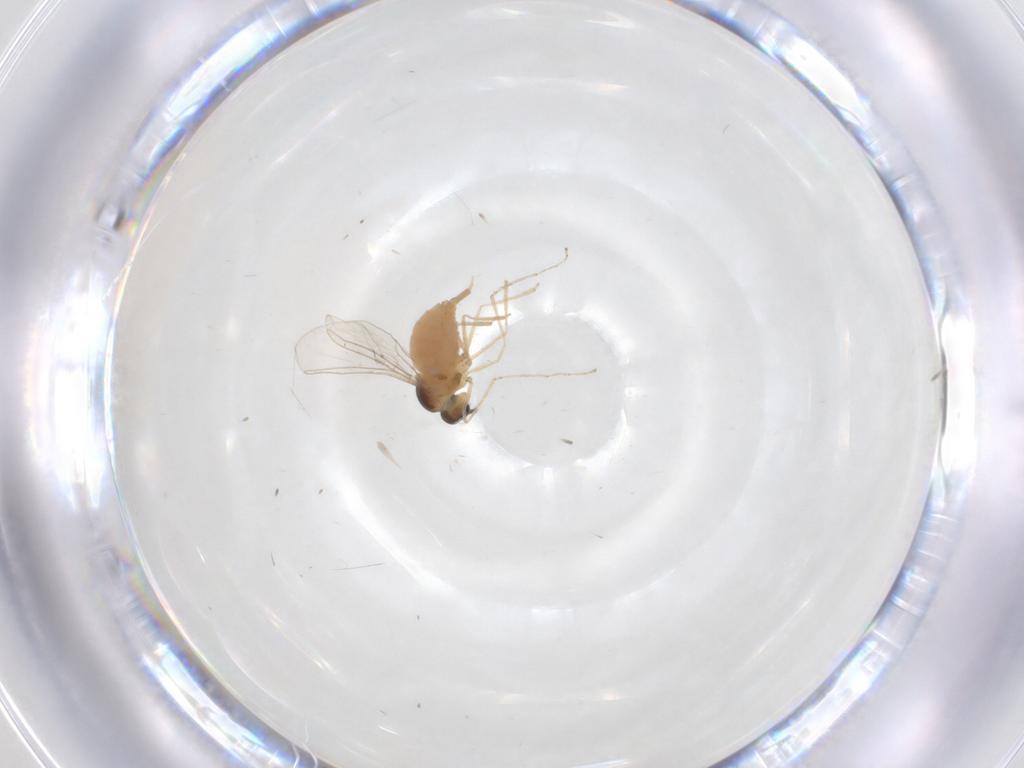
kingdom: Animalia
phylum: Arthropoda
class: Insecta
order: Diptera
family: Cecidomyiidae
